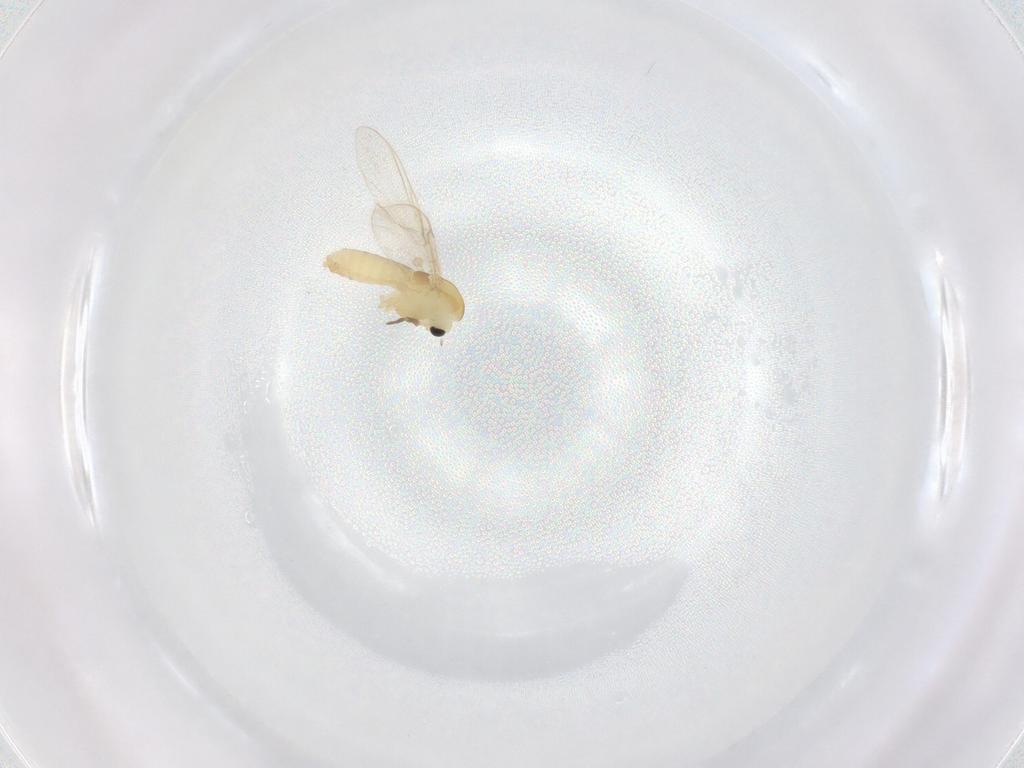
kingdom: Animalia
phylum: Arthropoda
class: Insecta
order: Diptera
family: Chironomidae
